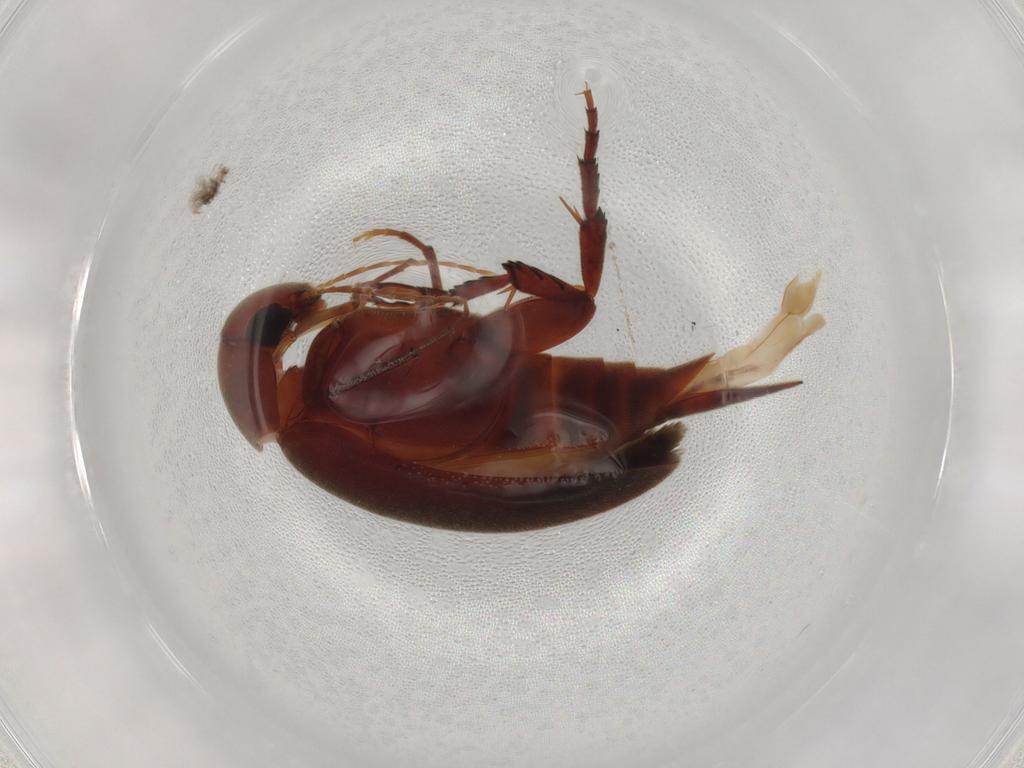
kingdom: Animalia
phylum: Arthropoda
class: Insecta
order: Coleoptera
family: Mordellidae
